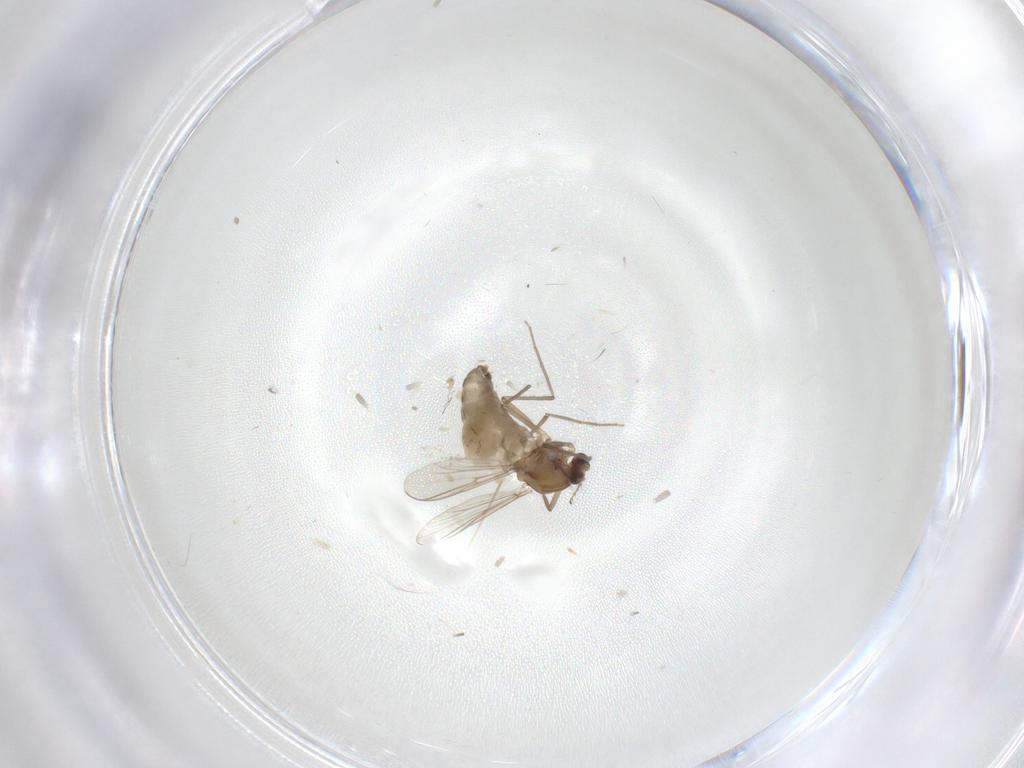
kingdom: Animalia
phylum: Arthropoda
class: Insecta
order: Diptera
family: Chironomidae
